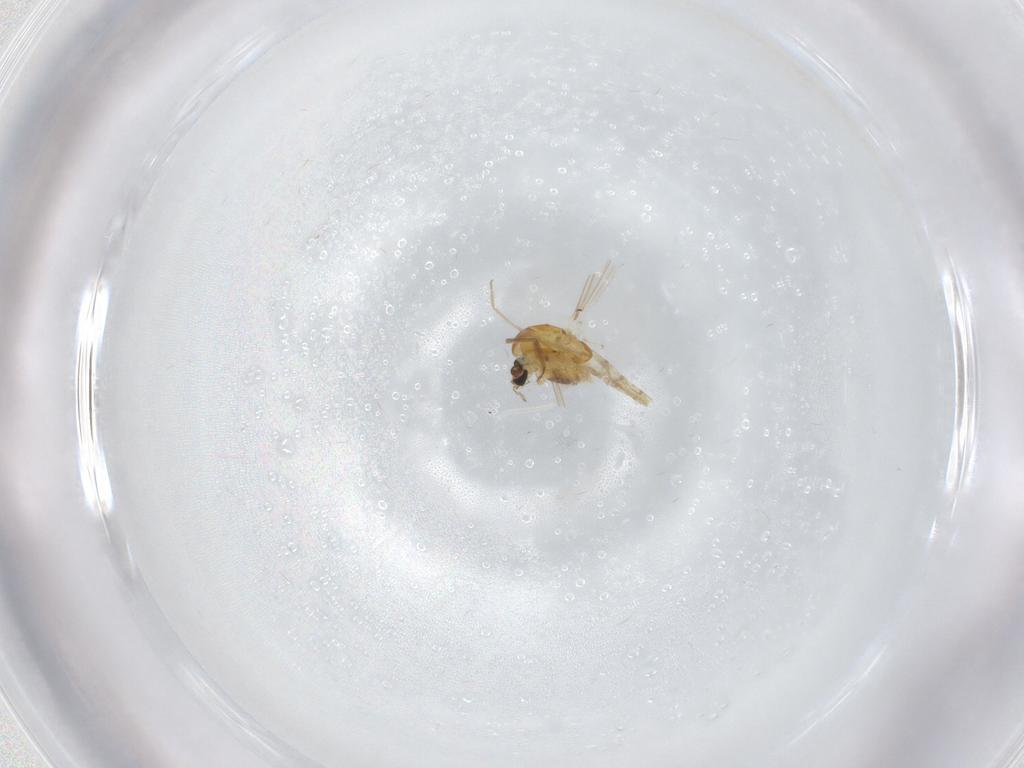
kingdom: Animalia
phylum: Arthropoda
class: Insecta
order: Diptera
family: Chironomidae
